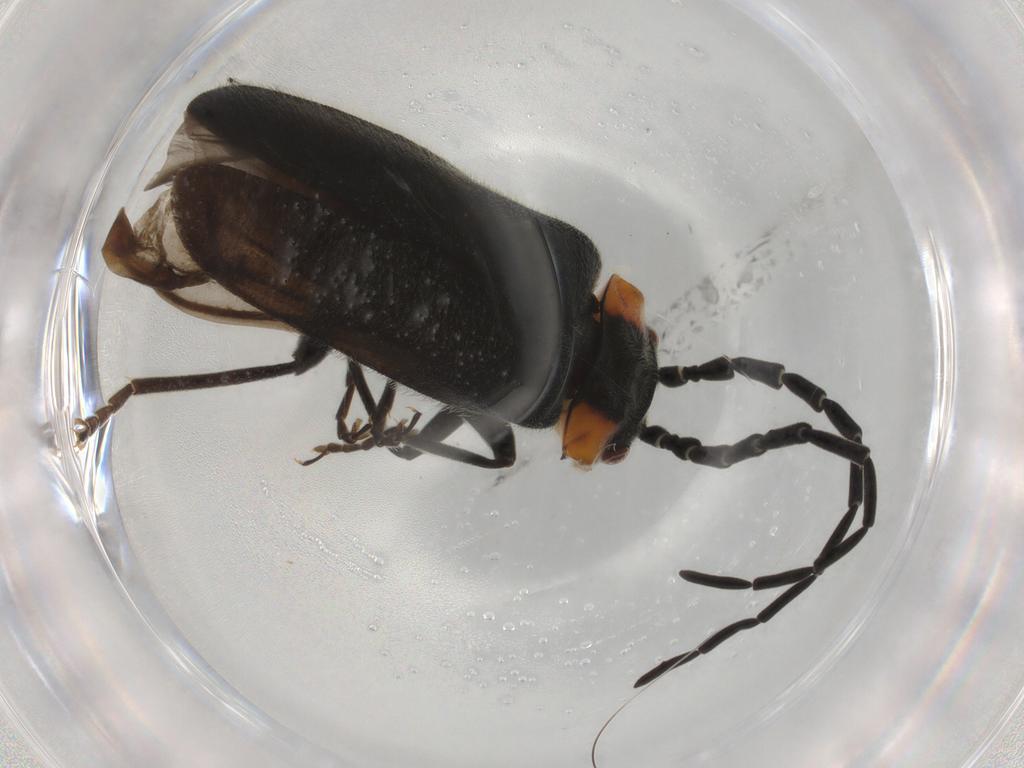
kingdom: Animalia
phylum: Arthropoda
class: Insecta
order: Coleoptera
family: Cantharidae
